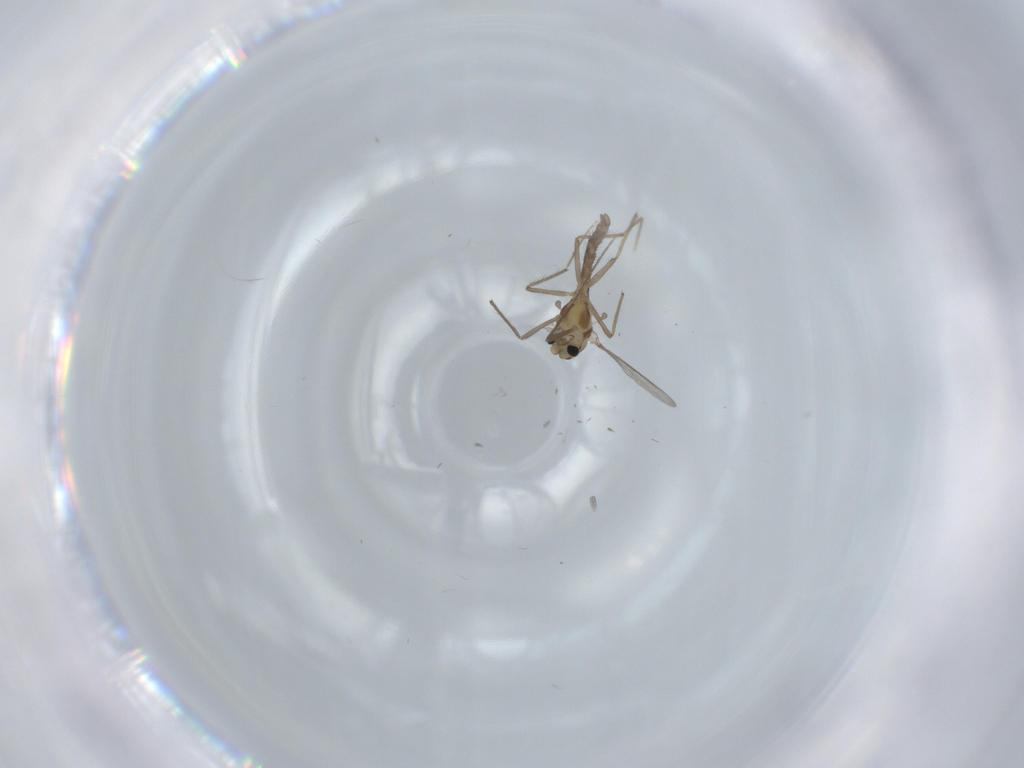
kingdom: Animalia
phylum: Arthropoda
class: Insecta
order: Diptera
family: Chironomidae
